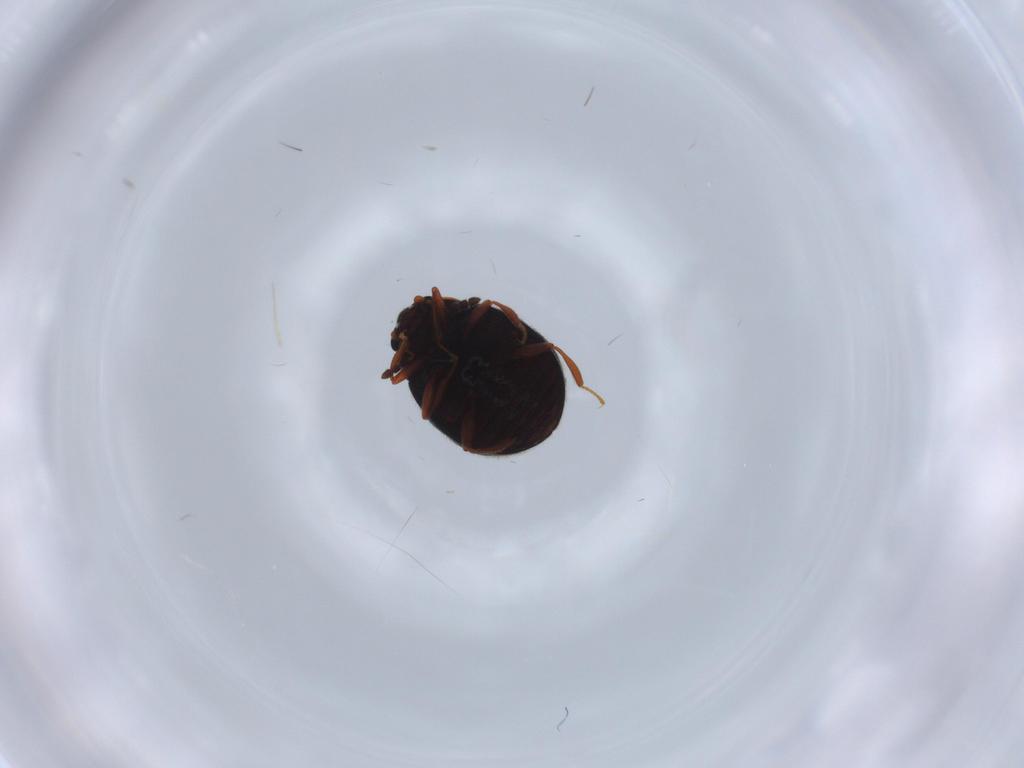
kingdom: Animalia
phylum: Arthropoda
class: Insecta
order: Coleoptera
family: Sphindidae
